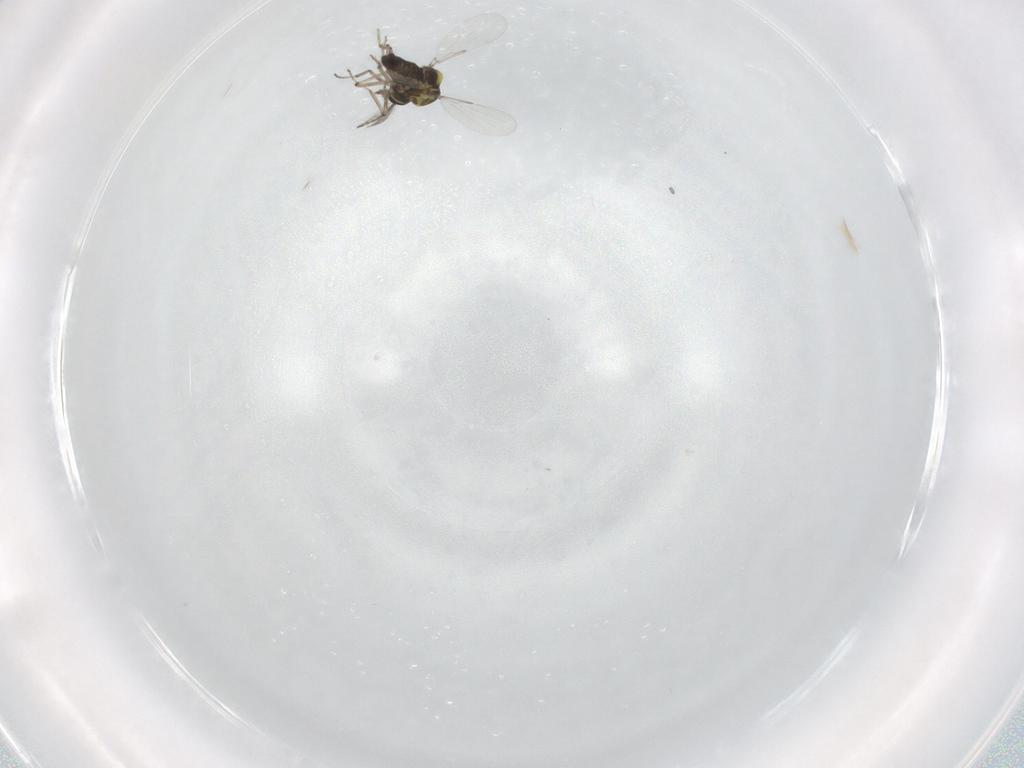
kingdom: Animalia
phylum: Arthropoda
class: Insecta
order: Diptera
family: Ceratopogonidae
